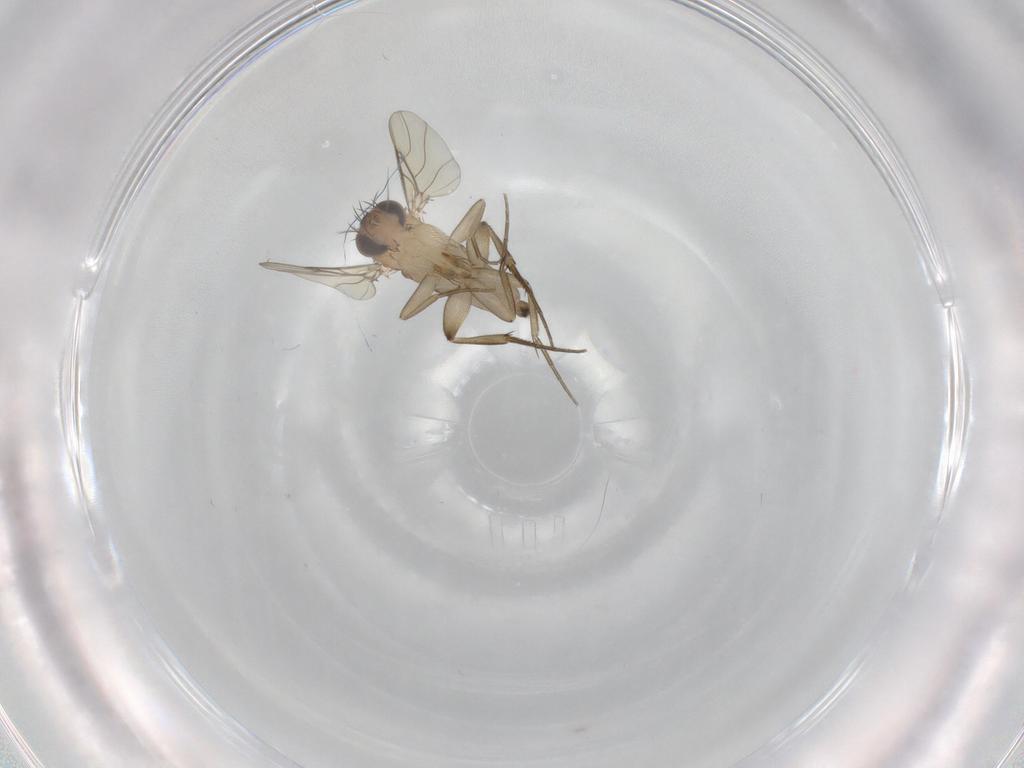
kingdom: Animalia
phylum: Arthropoda
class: Insecta
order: Diptera
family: Phoridae
